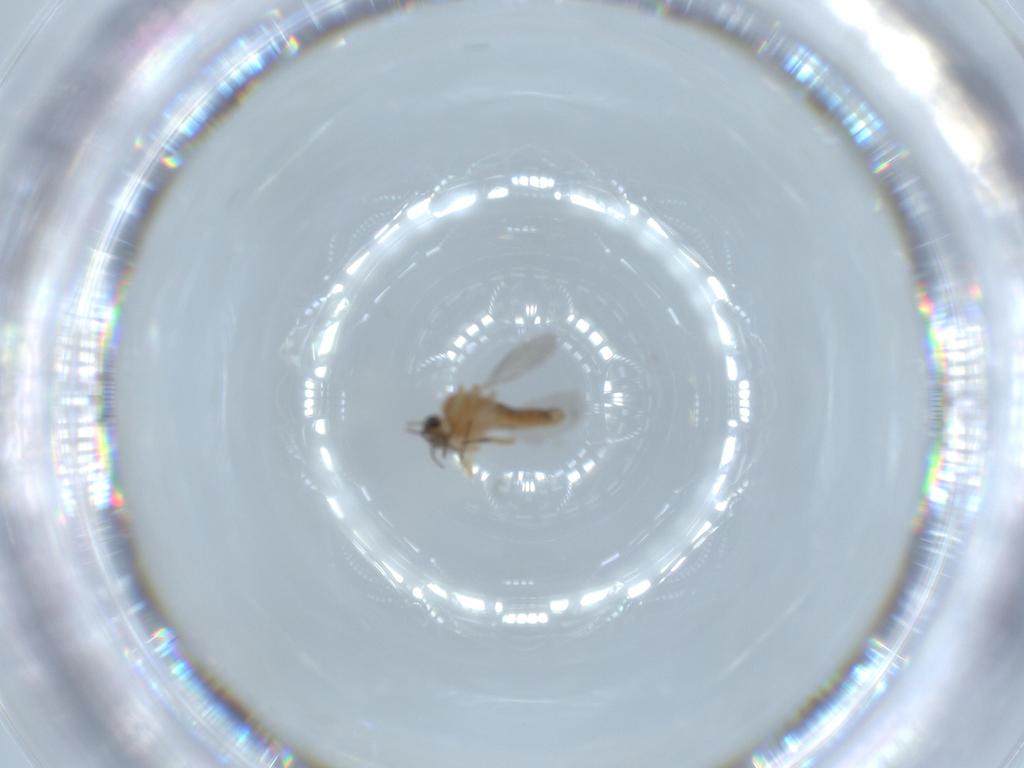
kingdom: Animalia
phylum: Arthropoda
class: Insecta
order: Diptera
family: Ceratopogonidae
